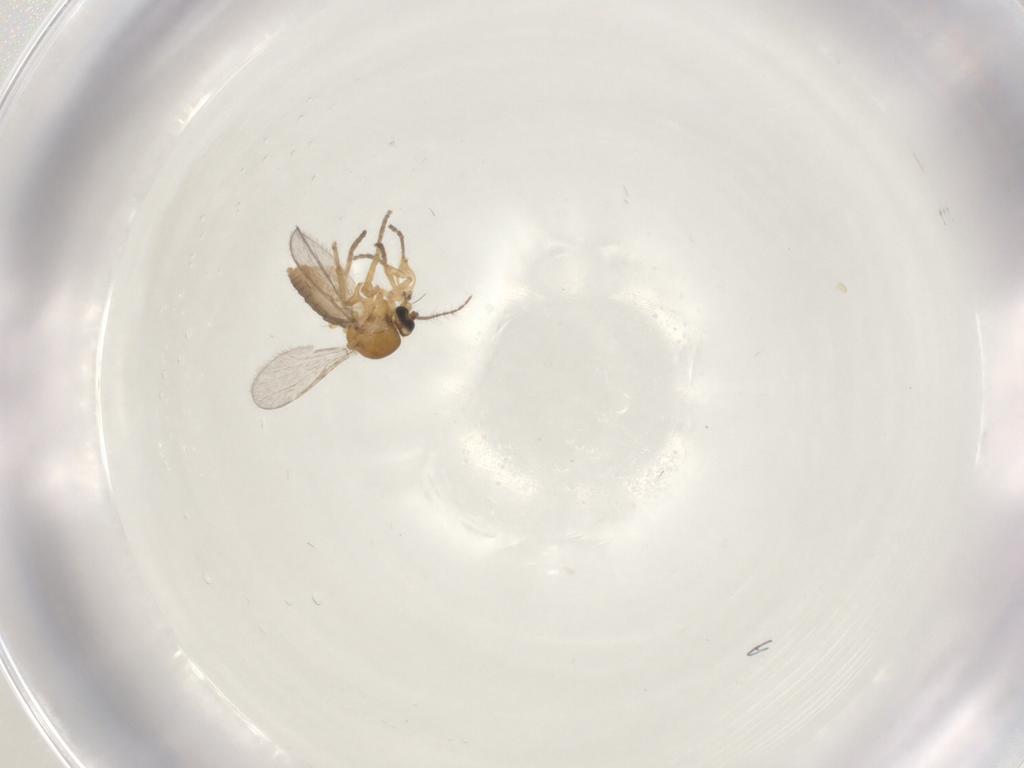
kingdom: Animalia
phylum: Arthropoda
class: Insecta
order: Diptera
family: Ceratopogonidae
